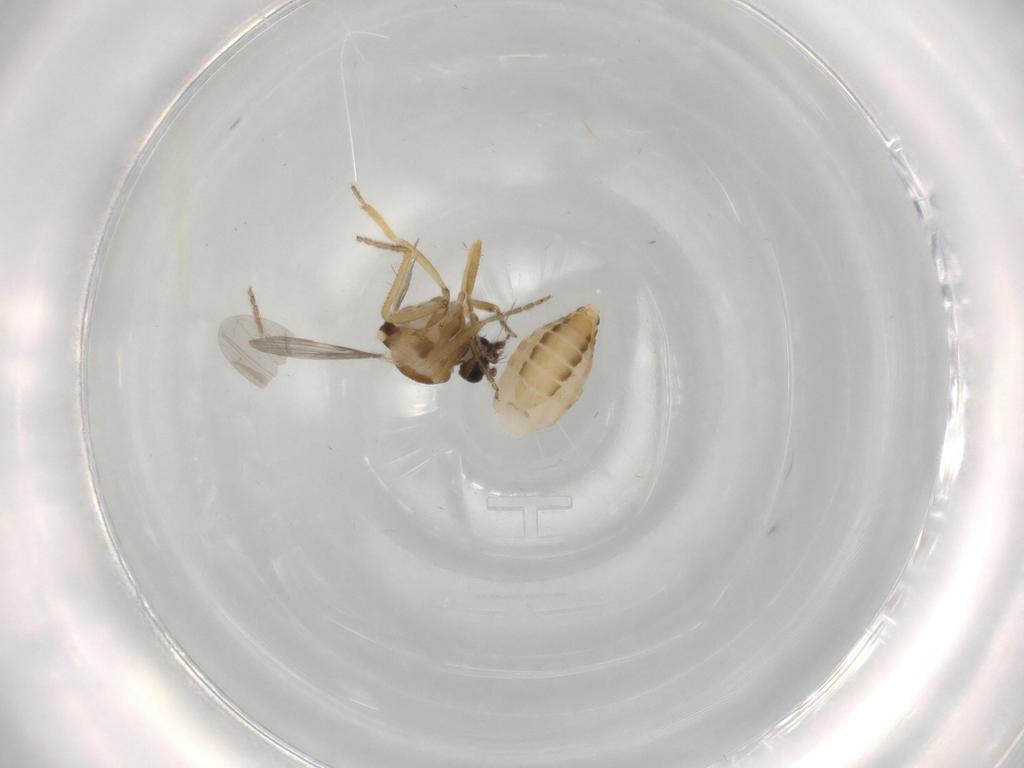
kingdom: Animalia
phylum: Arthropoda
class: Insecta
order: Diptera
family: Ceratopogonidae
